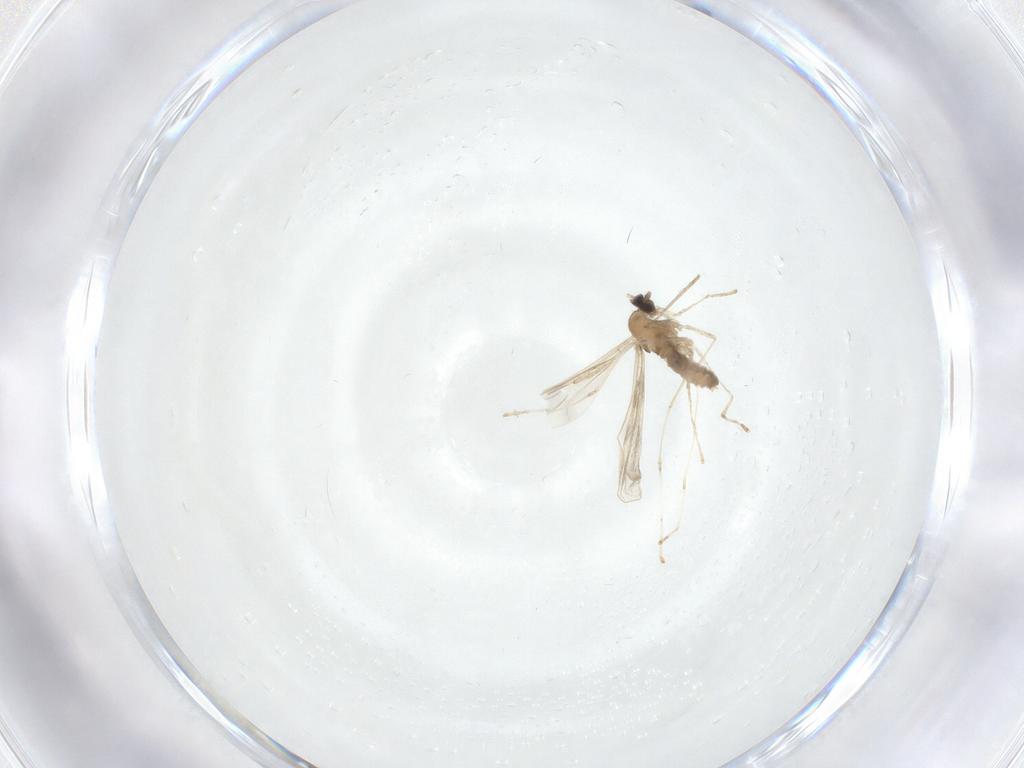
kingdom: Animalia
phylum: Arthropoda
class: Insecta
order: Diptera
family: Limoniidae
